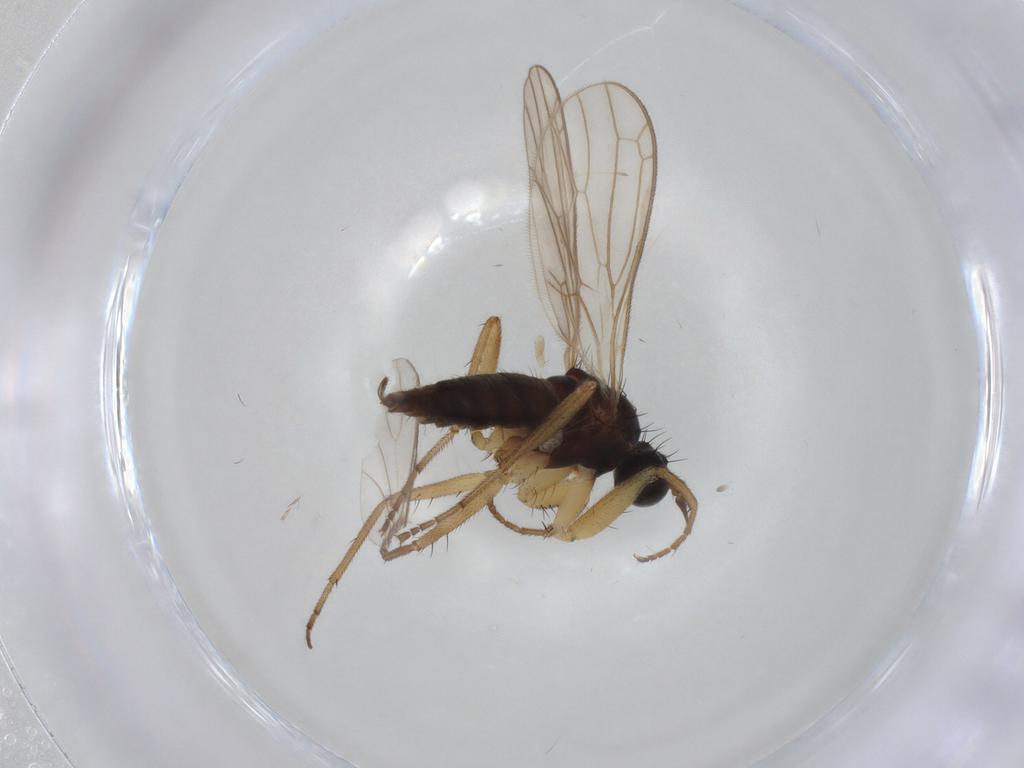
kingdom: Animalia
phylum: Arthropoda
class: Insecta
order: Diptera
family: Empididae
